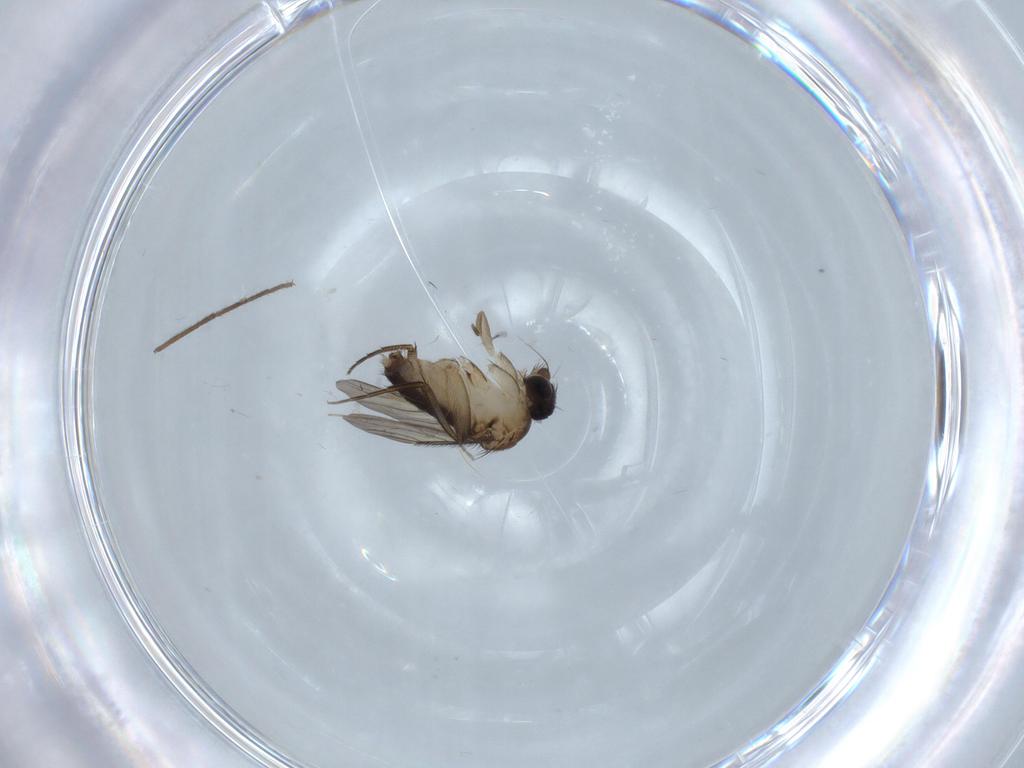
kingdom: Animalia
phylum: Arthropoda
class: Insecta
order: Diptera
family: Phoridae
